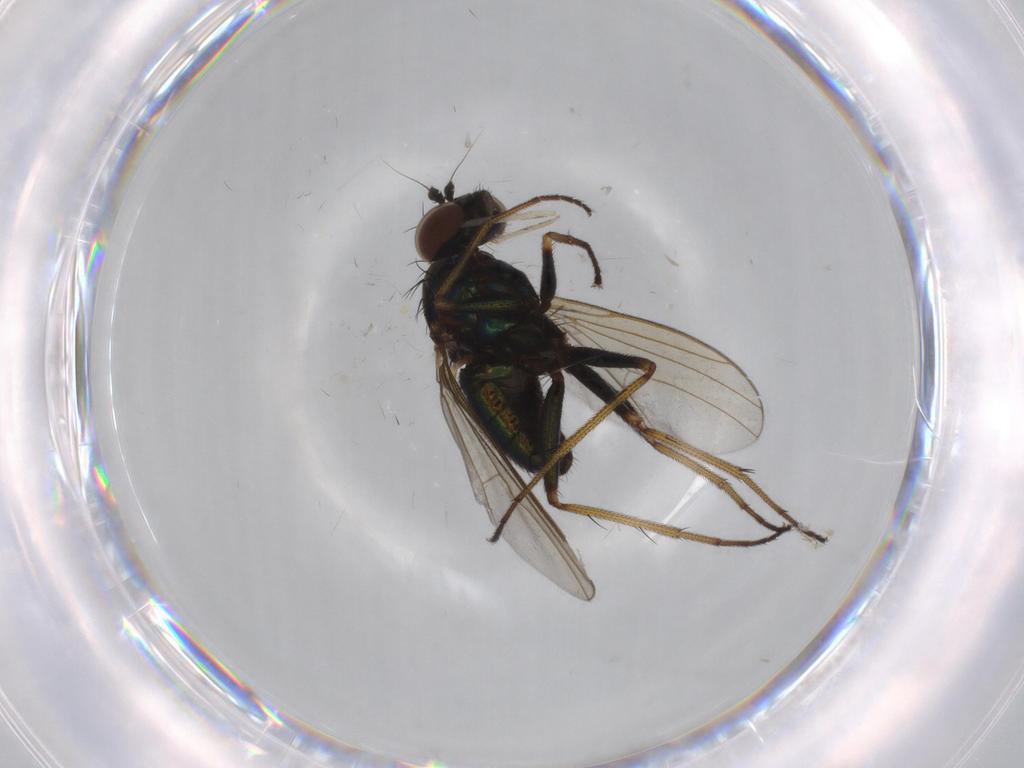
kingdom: Animalia
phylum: Arthropoda
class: Insecta
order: Diptera
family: Dolichopodidae
